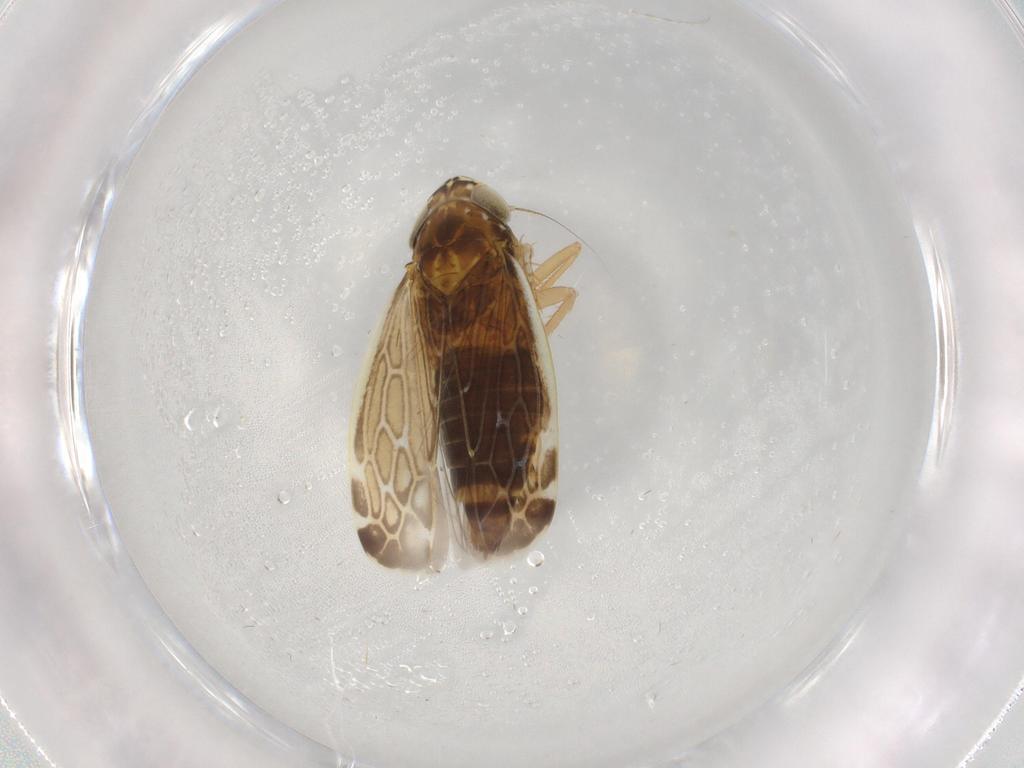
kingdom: Animalia
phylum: Arthropoda
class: Insecta
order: Hemiptera
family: Cicadellidae
